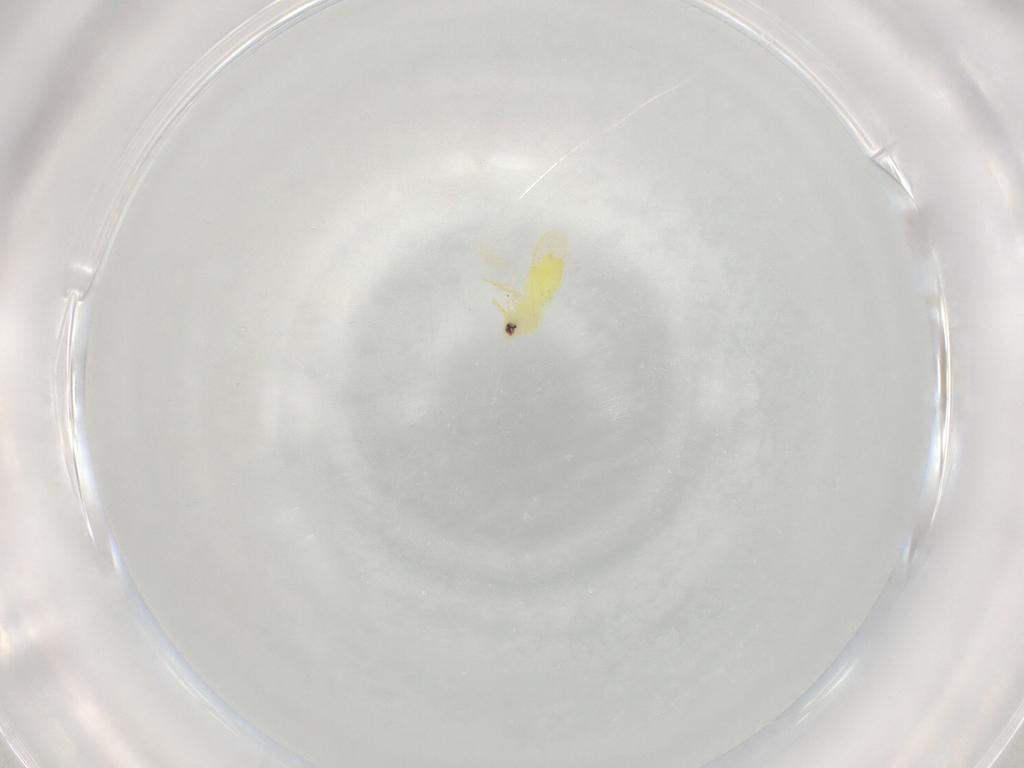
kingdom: Animalia
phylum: Arthropoda
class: Insecta
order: Hemiptera
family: Aleyrodidae
